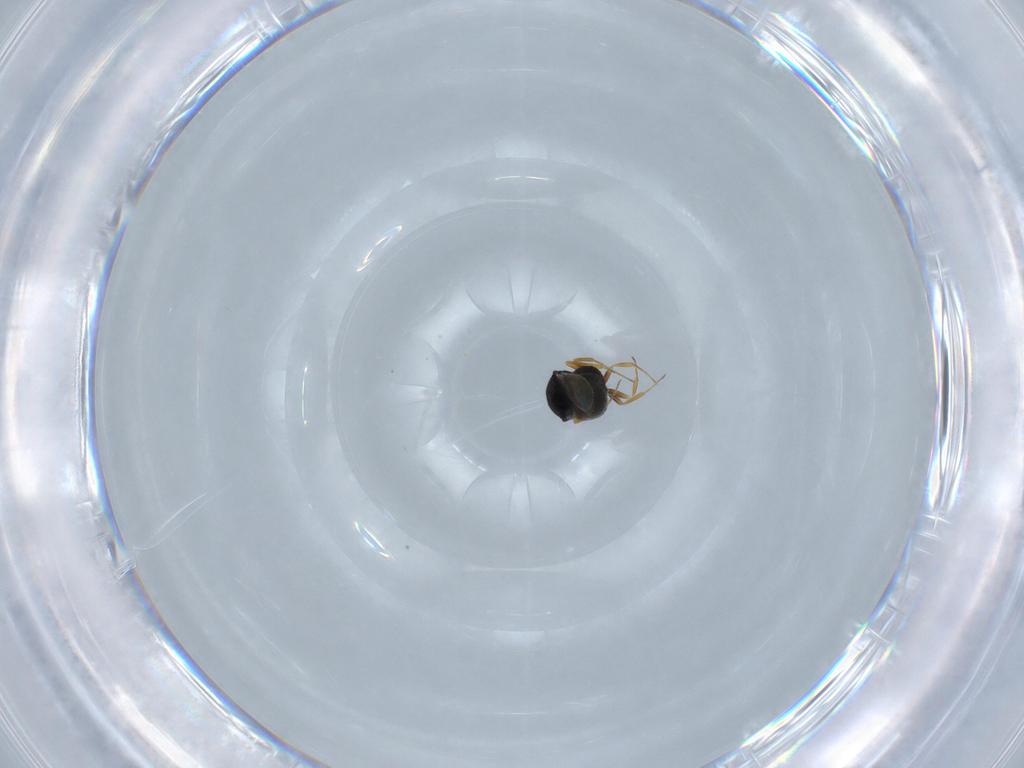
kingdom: Animalia
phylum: Arthropoda
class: Insecta
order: Hymenoptera
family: Scelionidae
